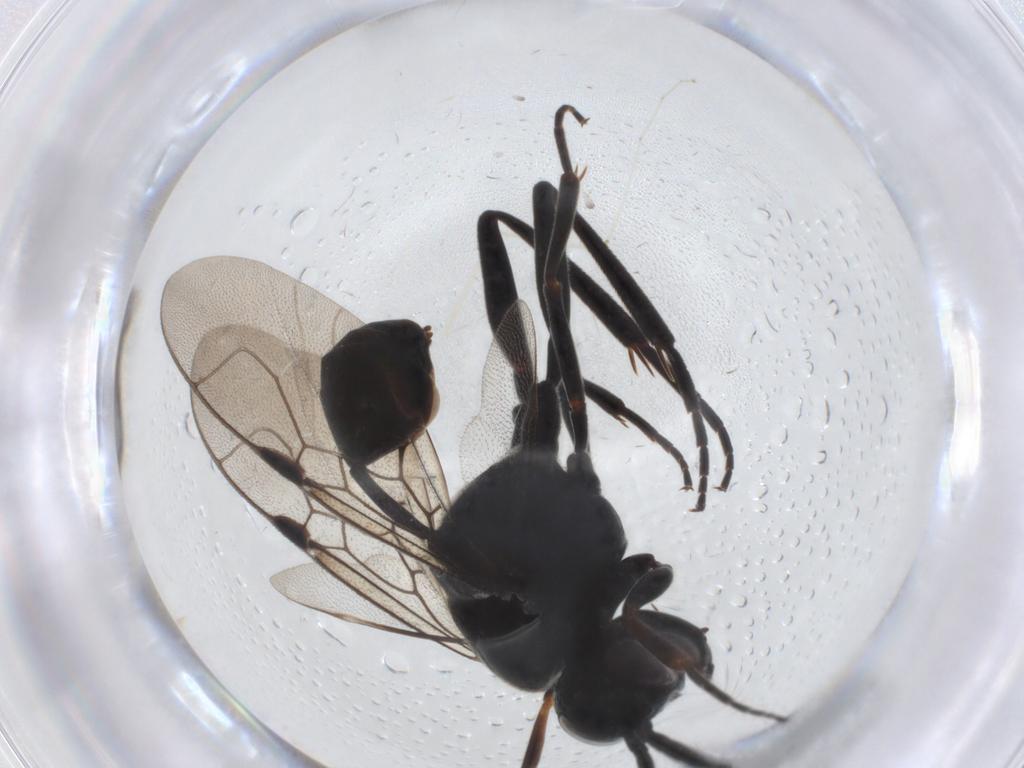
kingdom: Animalia
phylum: Arthropoda
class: Insecta
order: Hymenoptera
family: Evaniidae
